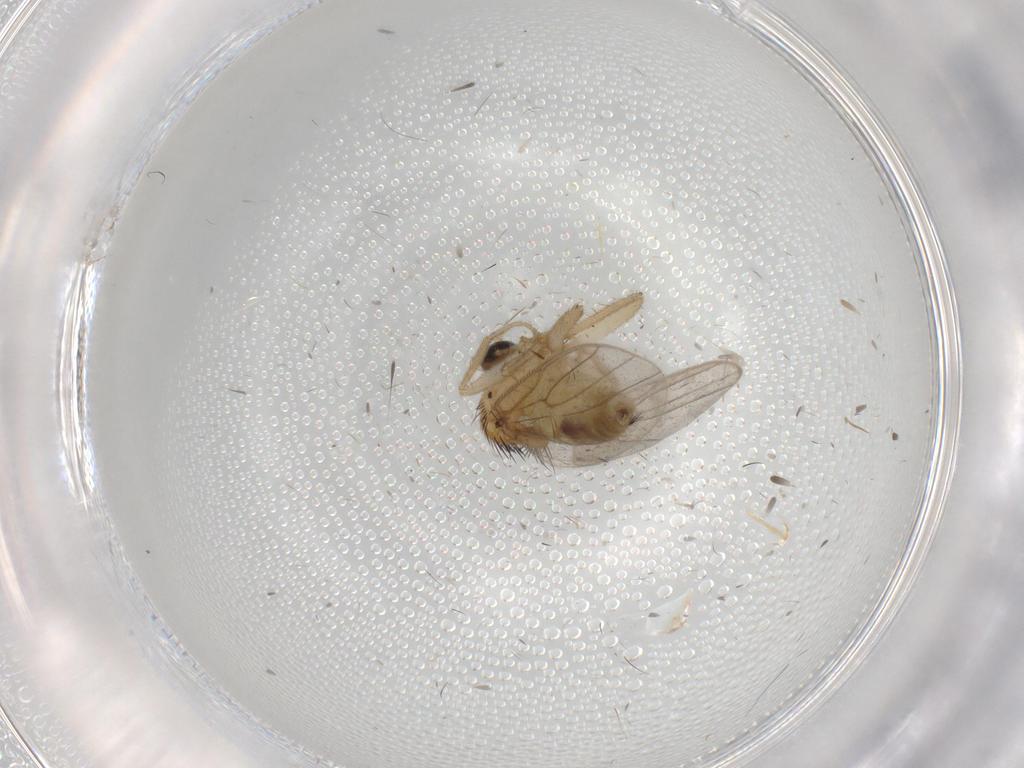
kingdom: Animalia
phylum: Arthropoda
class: Insecta
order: Diptera
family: Hybotidae
